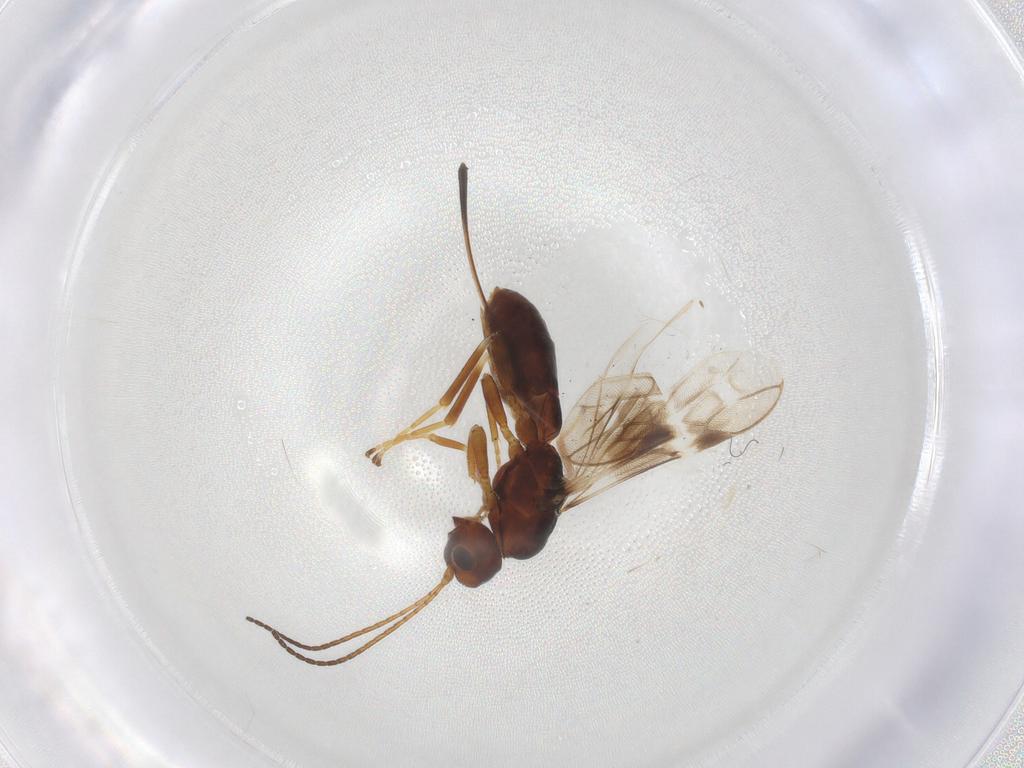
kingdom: Animalia
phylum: Arthropoda
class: Insecta
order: Hymenoptera
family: Braconidae
